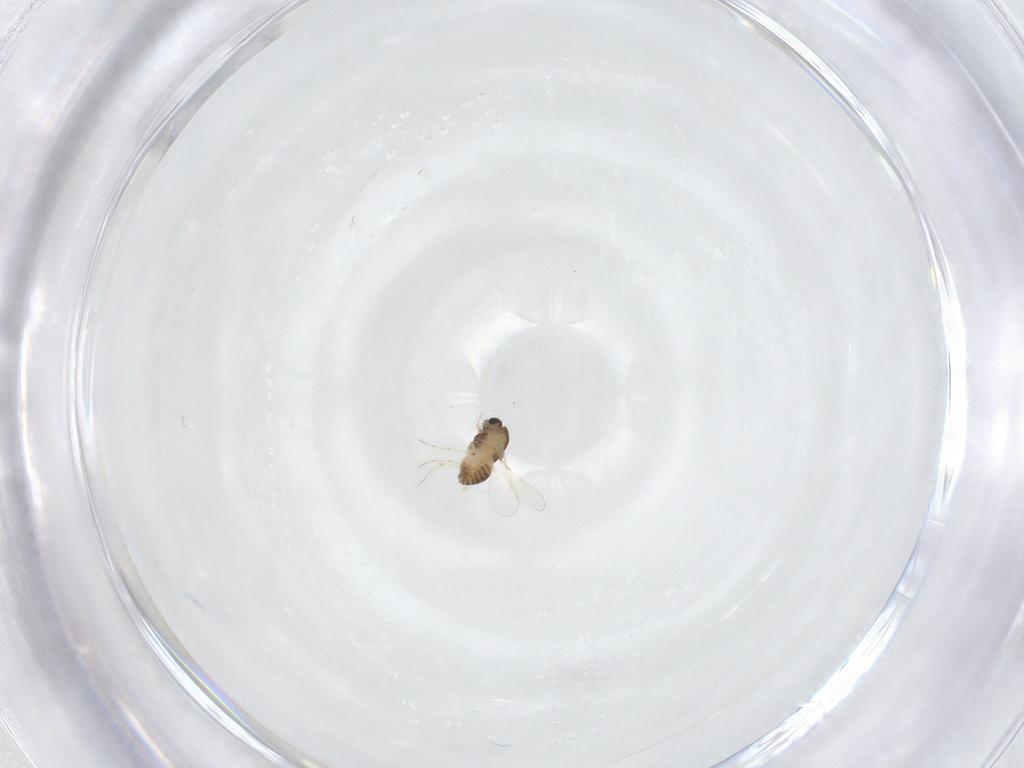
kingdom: Animalia
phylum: Arthropoda
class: Insecta
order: Diptera
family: Chironomidae
